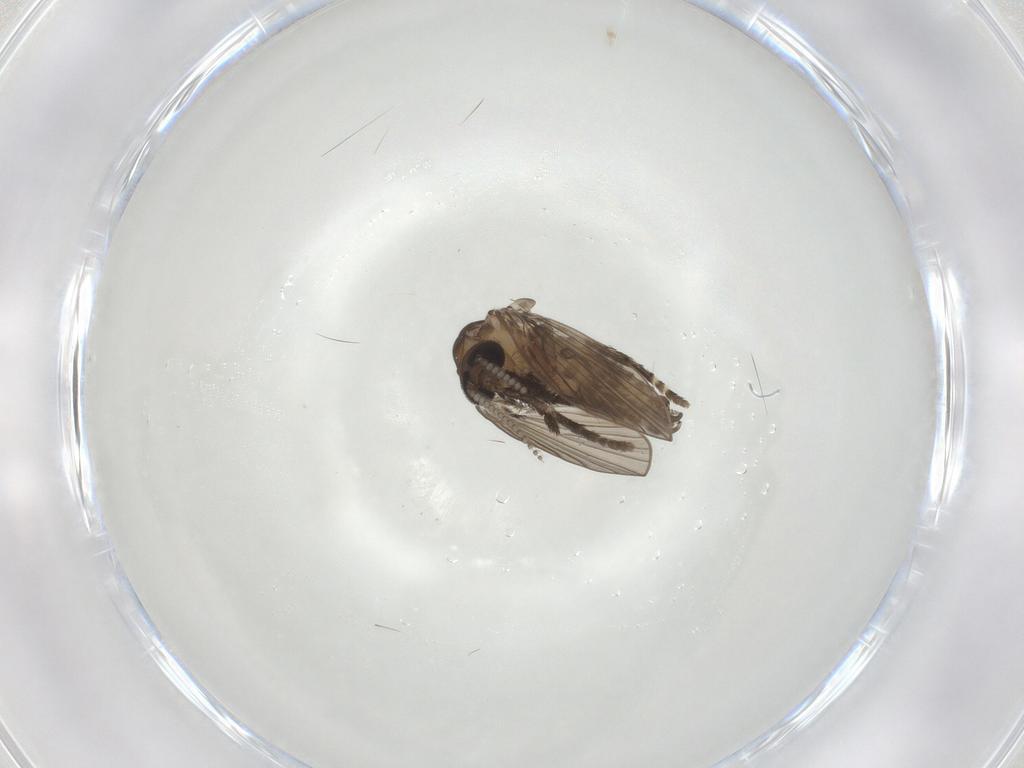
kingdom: Animalia
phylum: Arthropoda
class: Insecta
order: Diptera
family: Psychodidae
